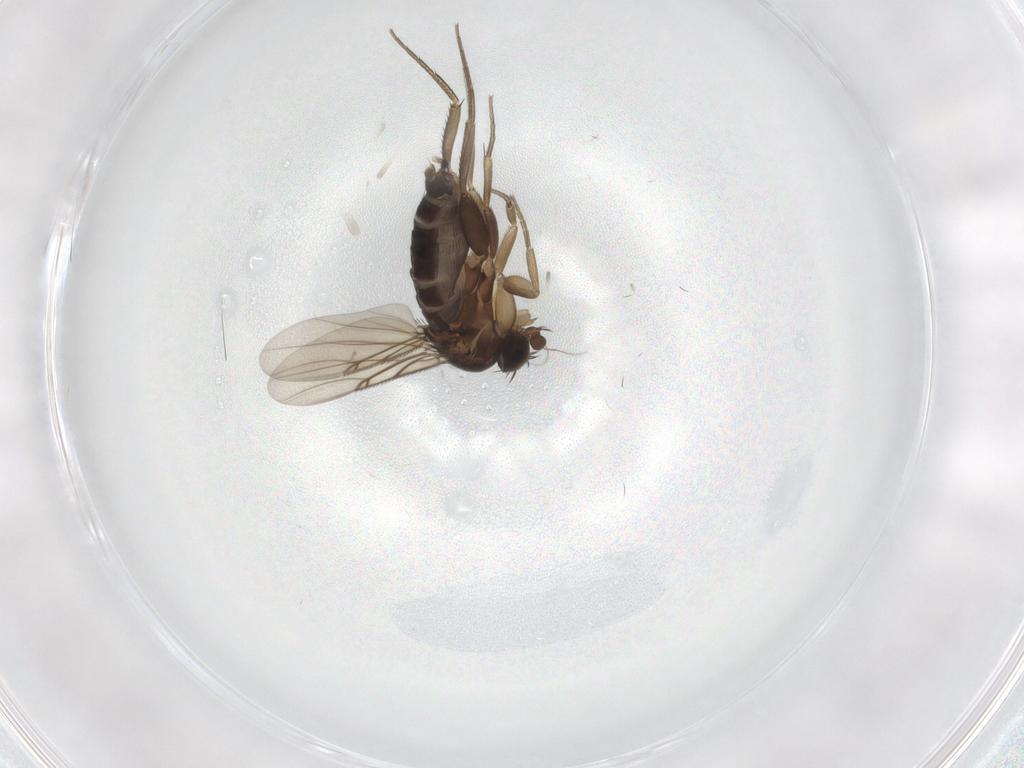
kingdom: Animalia
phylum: Arthropoda
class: Insecta
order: Diptera
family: Phoridae
